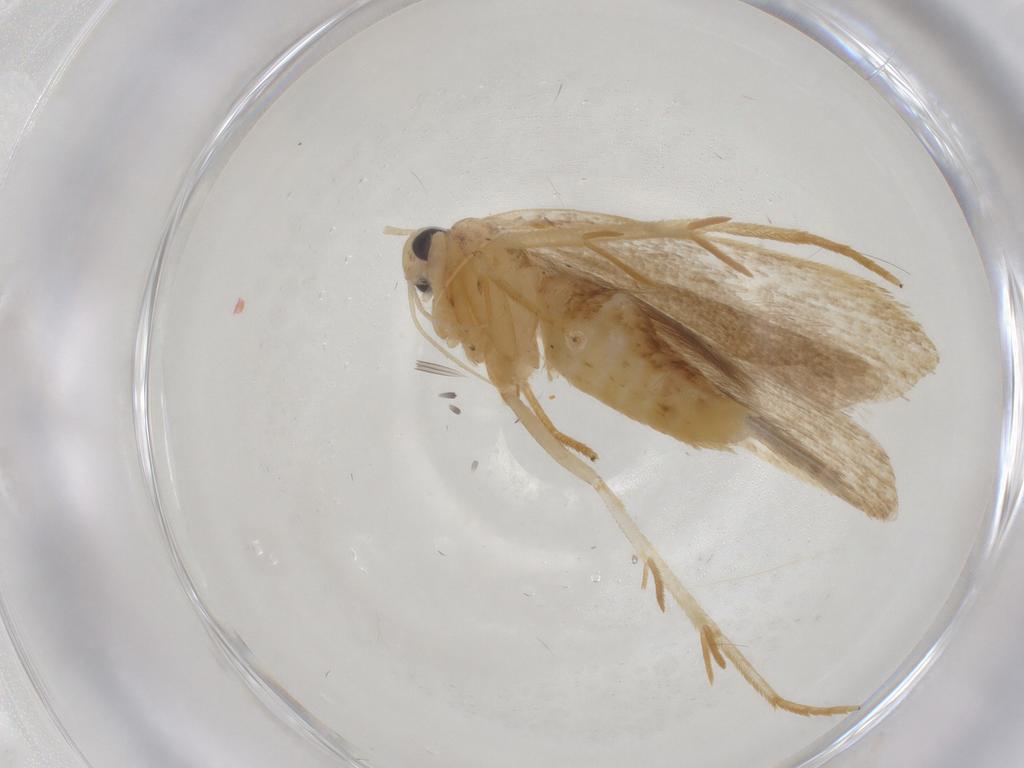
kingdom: Animalia
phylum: Arthropoda
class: Insecta
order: Lepidoptera
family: Gelechiidae
